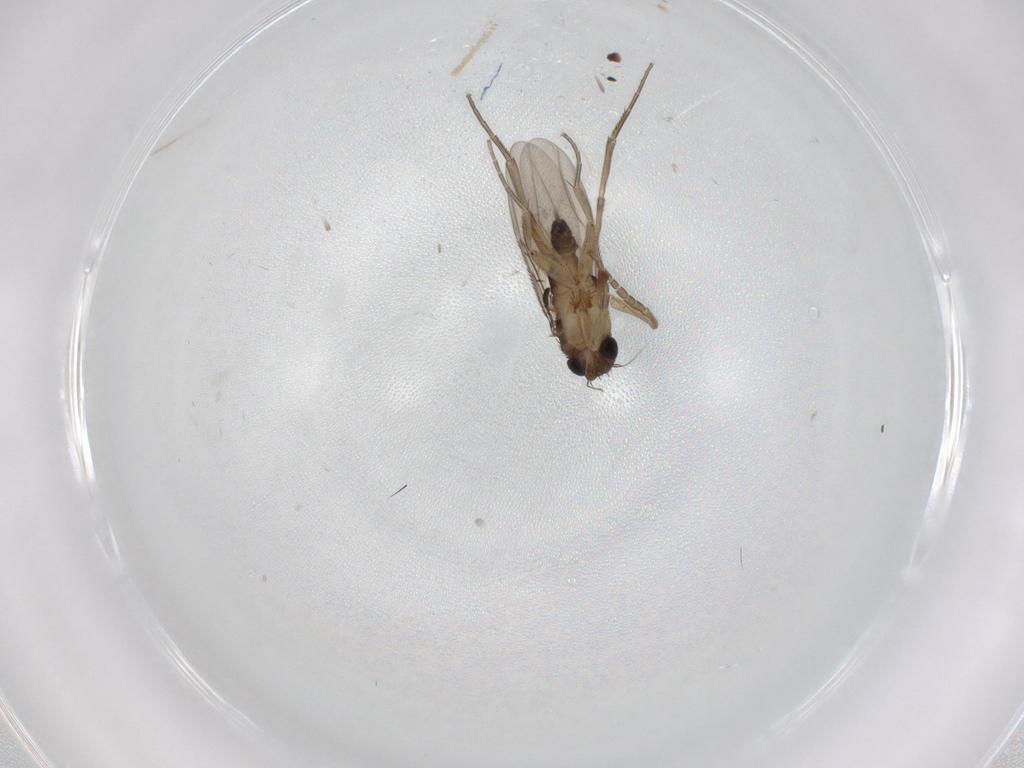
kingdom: Animalia
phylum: Arthropoda
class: Insecta
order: Diptera
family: Phoridae
